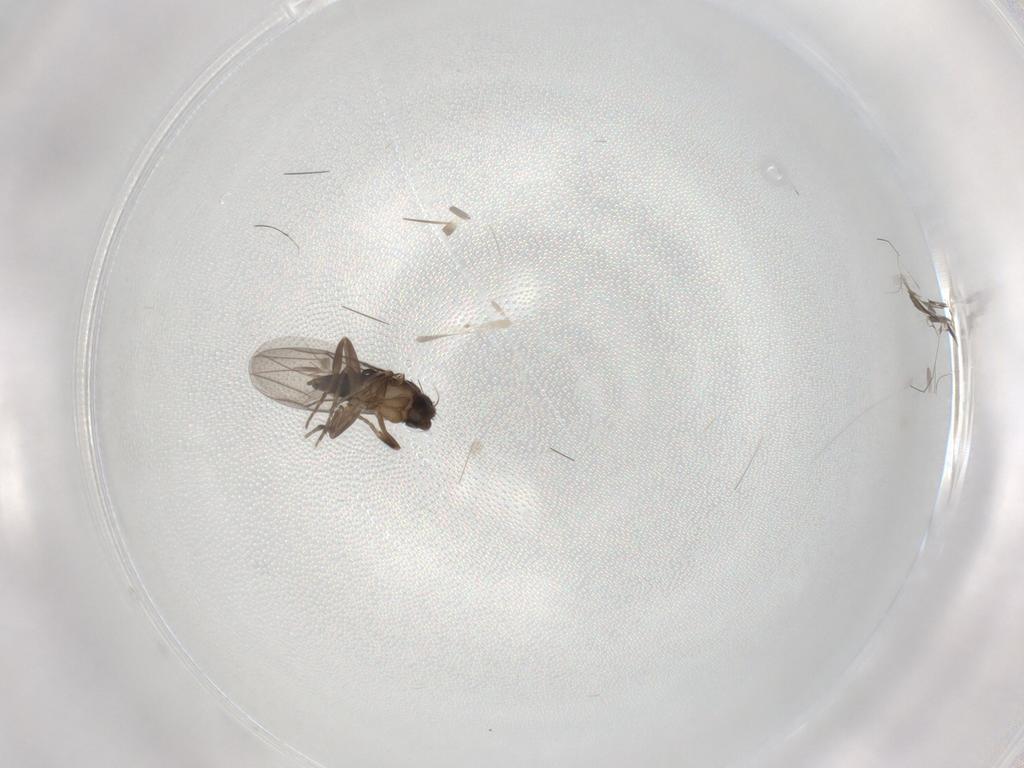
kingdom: Animalia
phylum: Arthropoda
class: Insecta
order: Diptera
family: Phoridae
